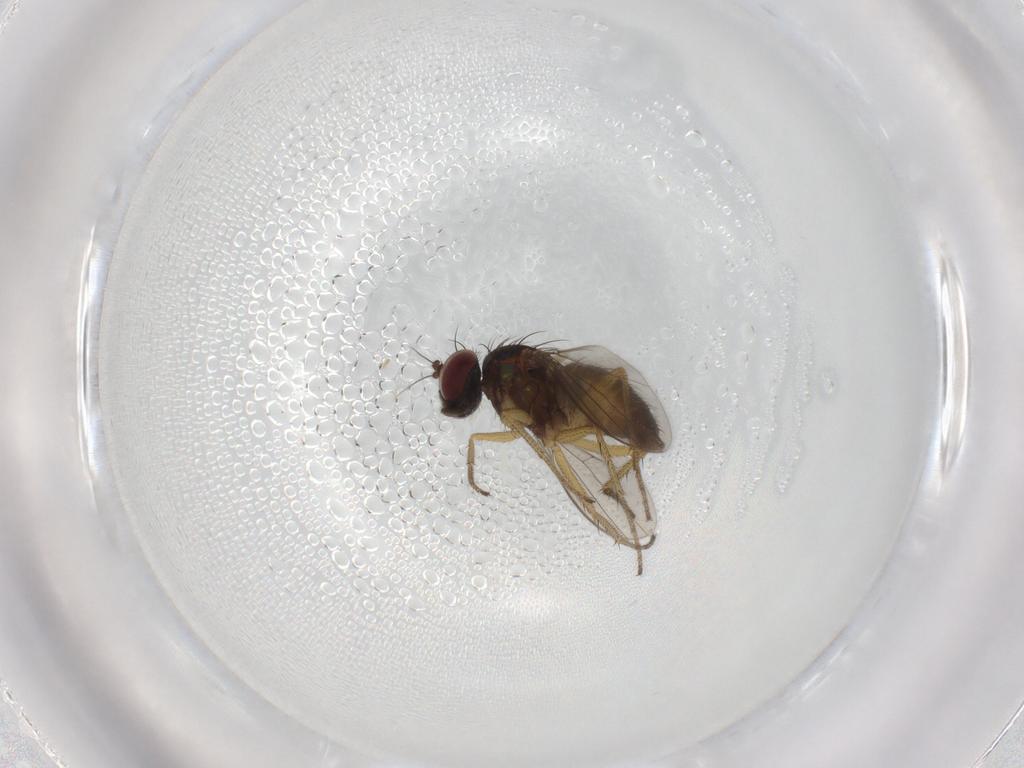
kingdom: Animalia
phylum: Arthropoda
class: Insecta
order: Diptera
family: Dolichopodidae
